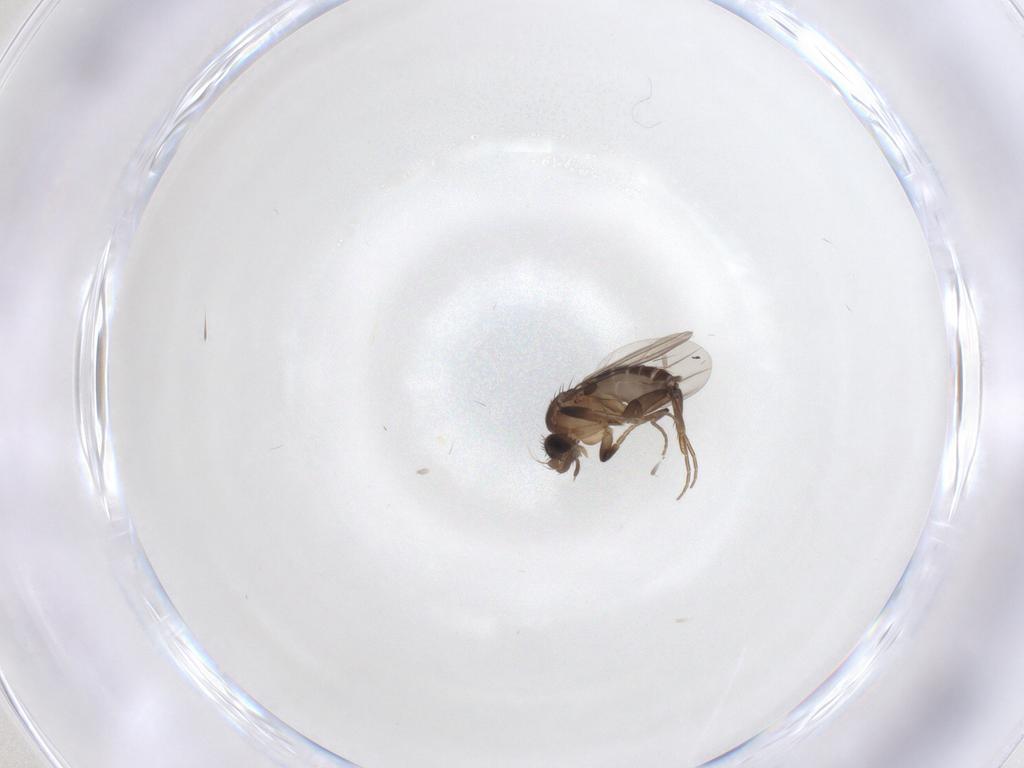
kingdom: Animalia
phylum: Arthropoda
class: Insecta
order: Diptera
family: Phoridae
